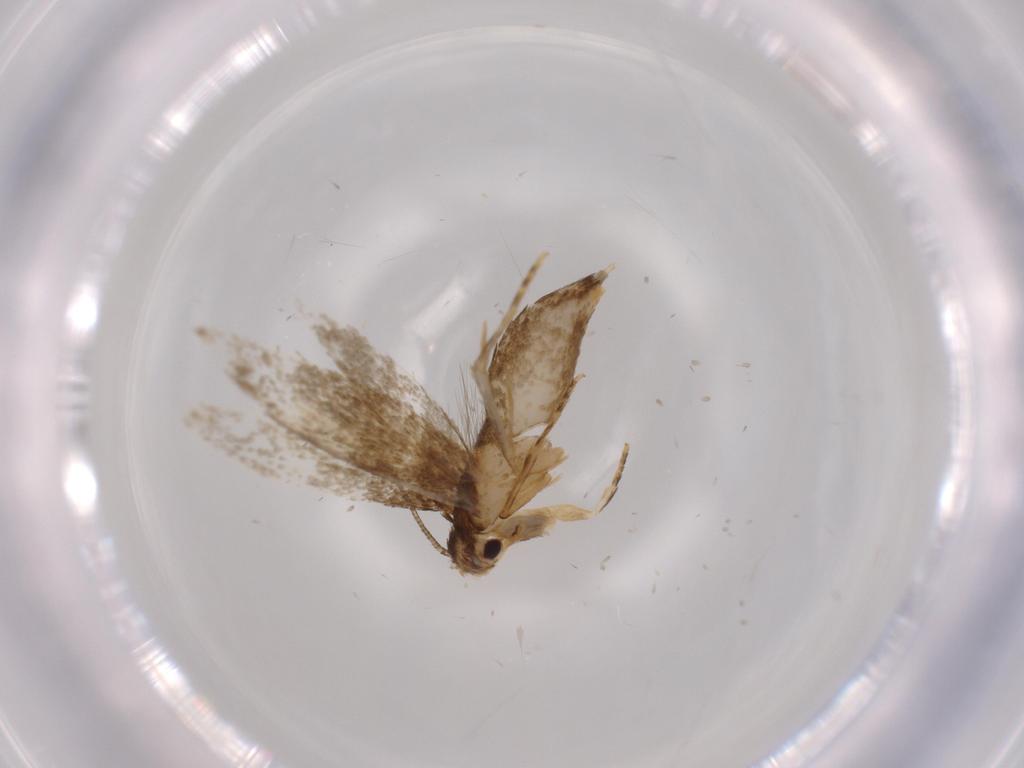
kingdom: Animalia
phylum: Arthropoda
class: Insecta
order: Lepidoptera
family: Tineidae
